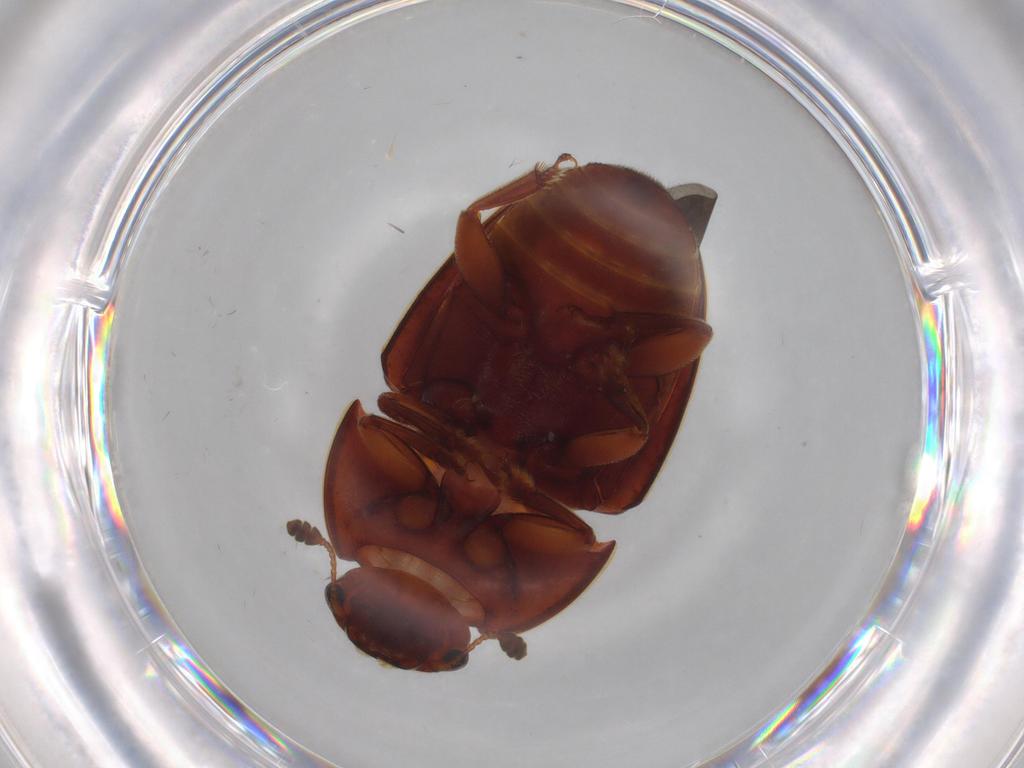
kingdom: Animalia
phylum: Arthropoda
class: Insecta
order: Coleoptera
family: Nitidulidae
